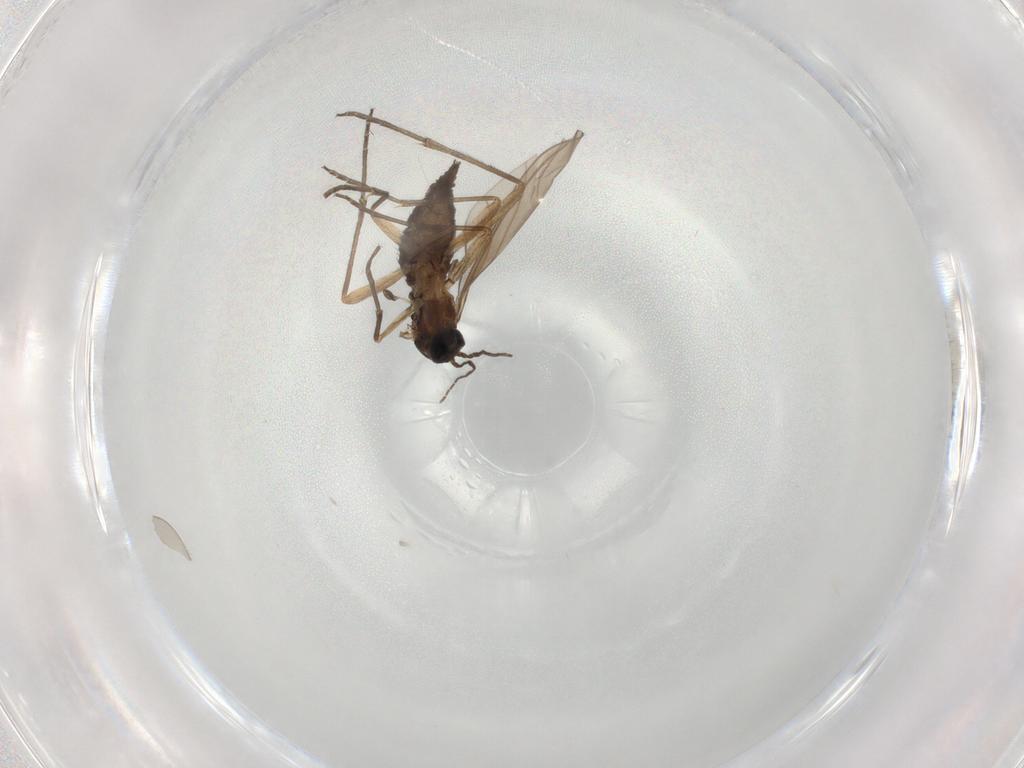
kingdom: Animalia
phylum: Arthropoda
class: Insecta
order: Diptera
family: Sciaridae
